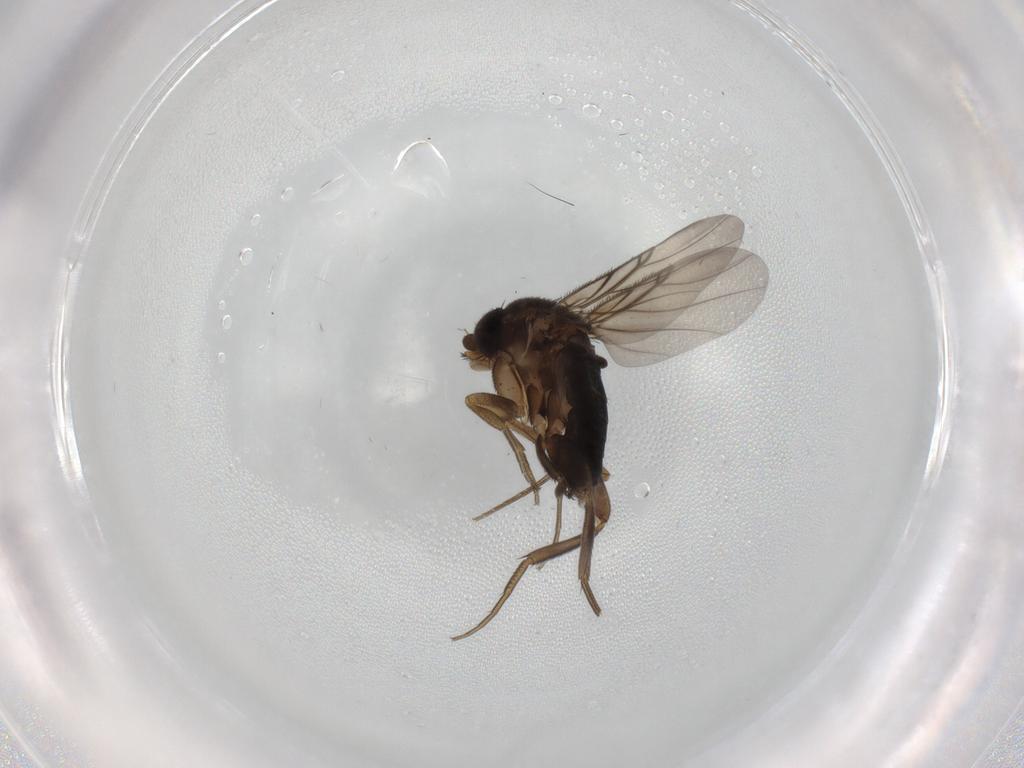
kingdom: Animalia
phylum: Arthropoda
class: Insecta
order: Diptera
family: Phoridae
